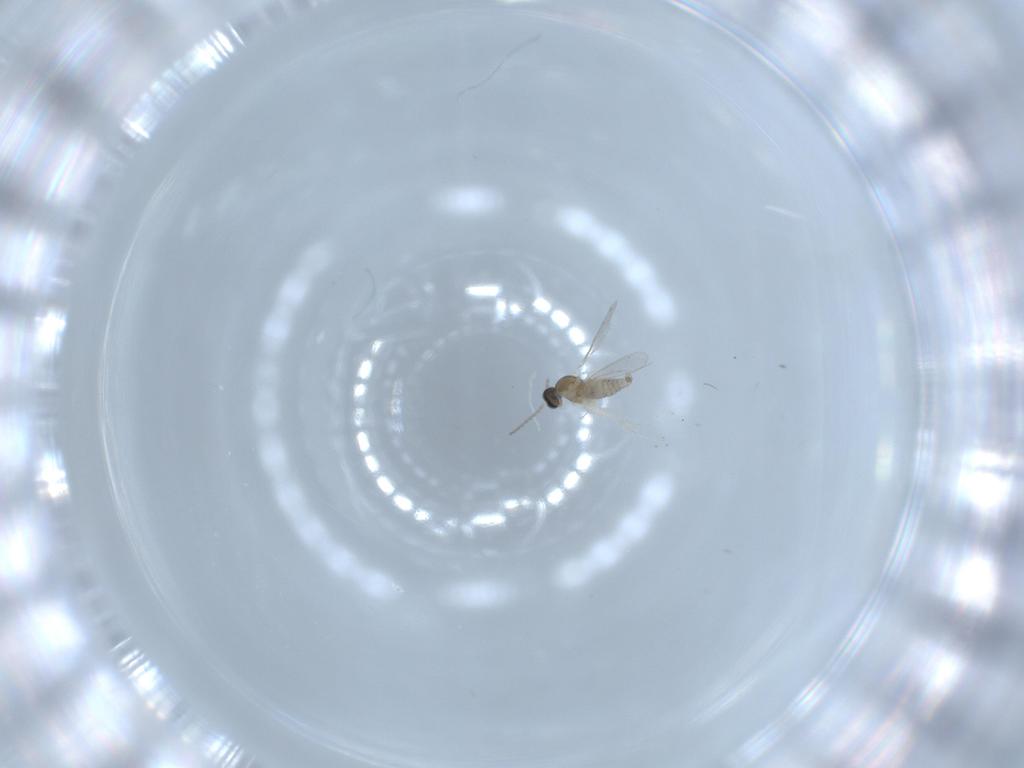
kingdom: Animalia
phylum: Arthropoda
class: Insecta
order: Diptera
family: Cecidomyiidae
